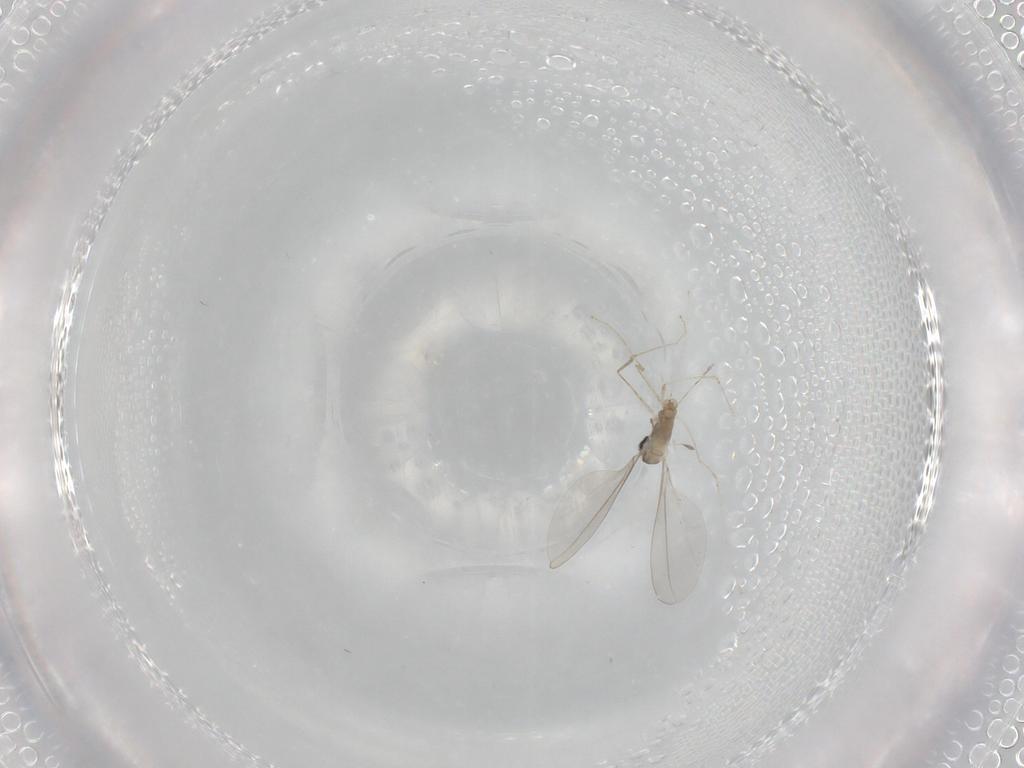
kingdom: Animalia
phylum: Arthropoda
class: Insecta
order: Diptera
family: Cecidomyiidae
